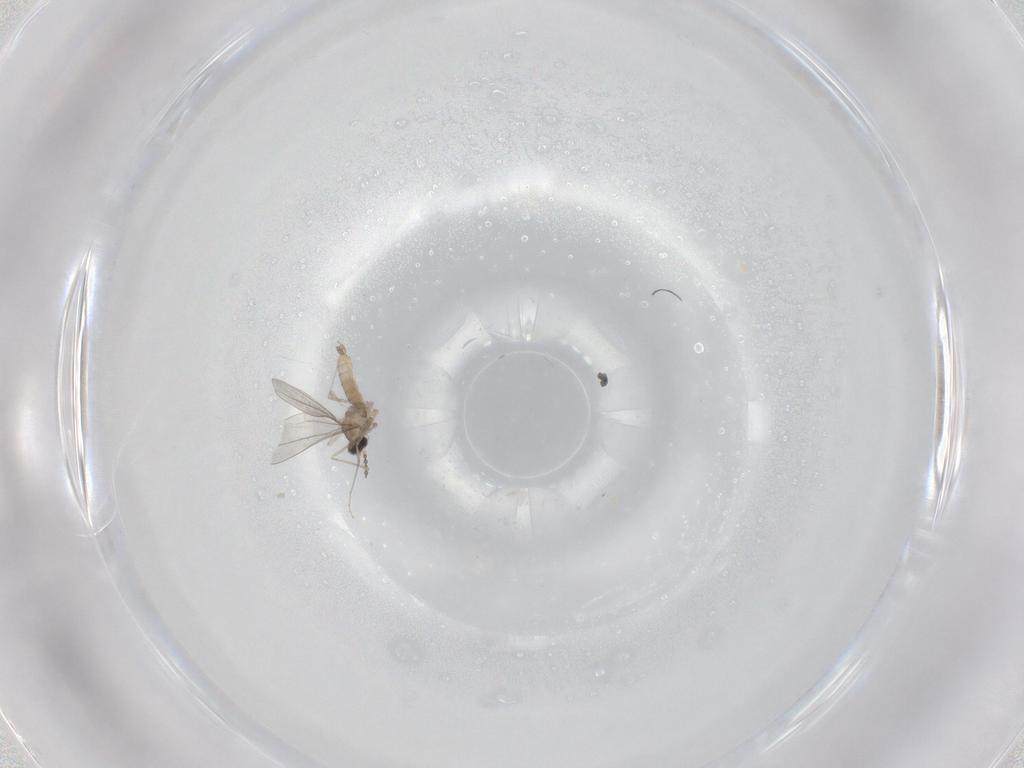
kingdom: Animalia
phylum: Arthropoda
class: Insecta
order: Diptera
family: Cecidomyiidae
